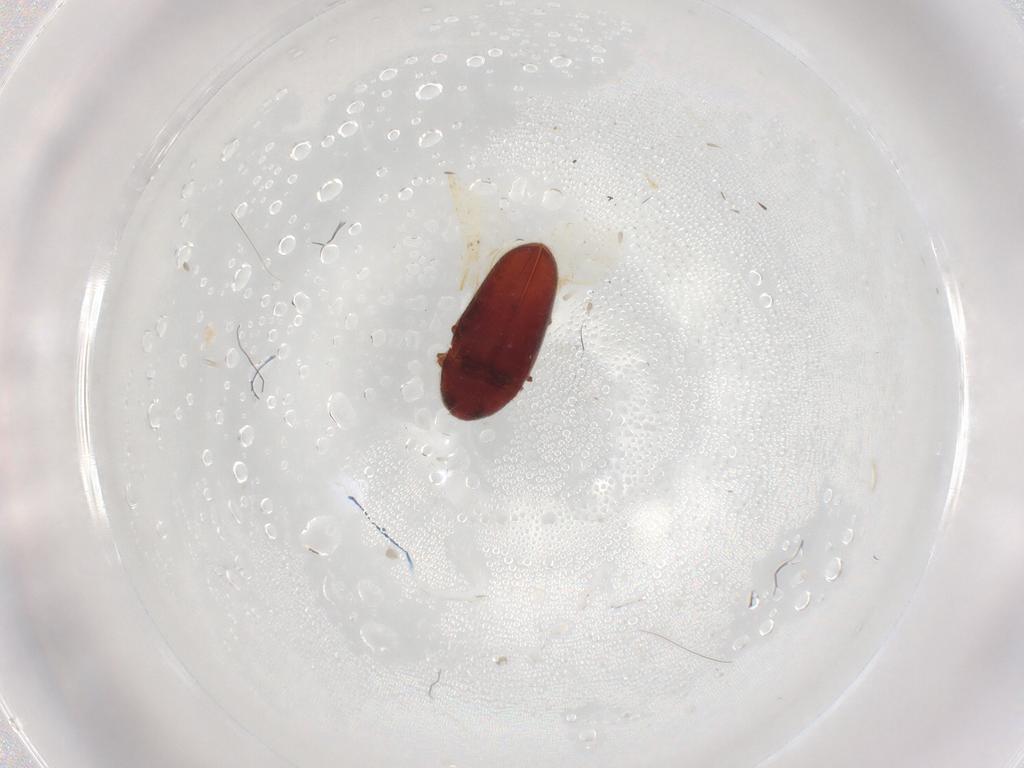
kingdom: Animalia
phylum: Arthropoda
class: Insecta
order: Coleoptera
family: Throscidae
